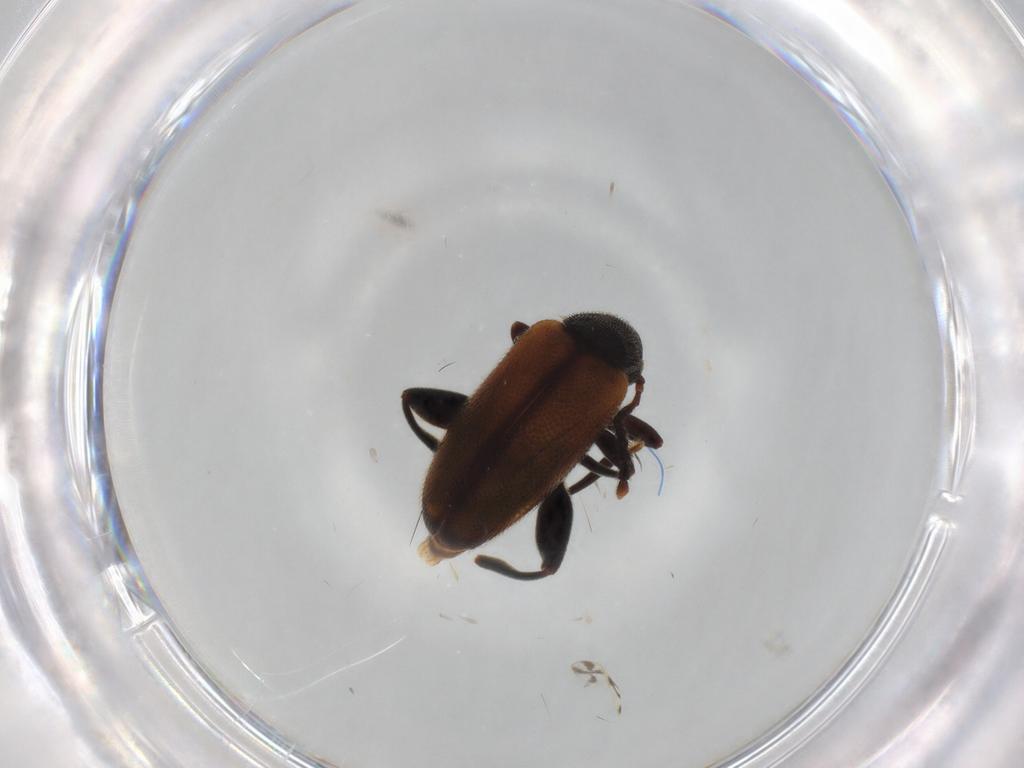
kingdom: Animalia
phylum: Arthropoda
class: Insecta
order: Coleoptera
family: Aderidae
